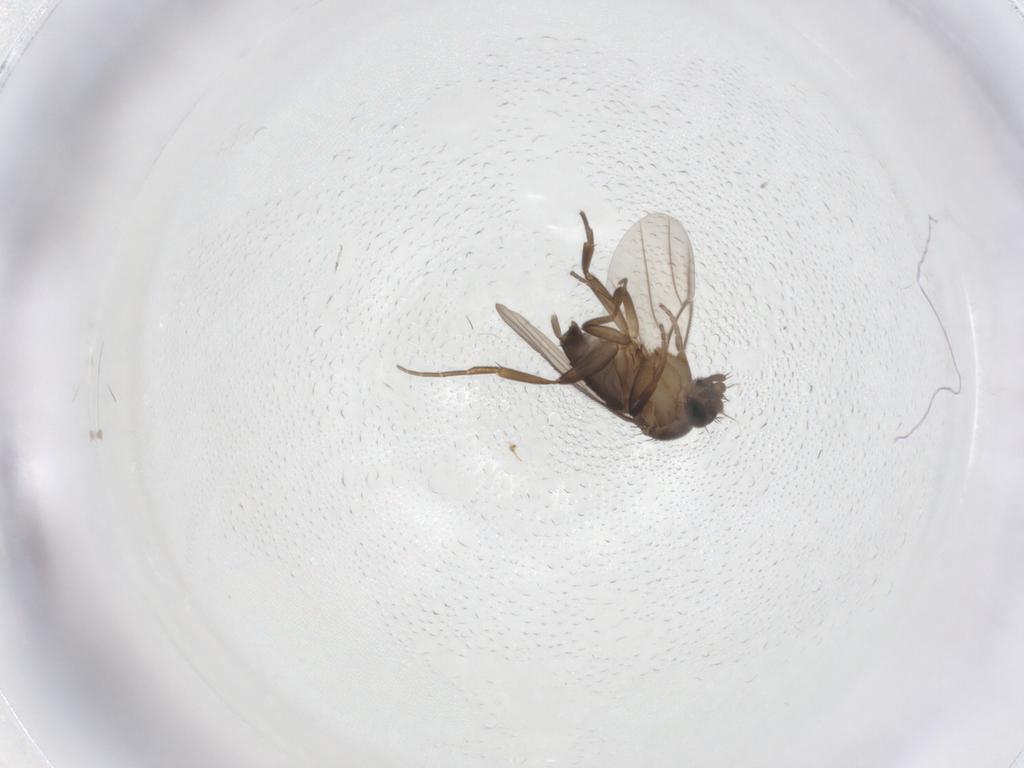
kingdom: Animalia
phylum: Arthropoda
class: Insecta
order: Diptera
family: Phoridae
